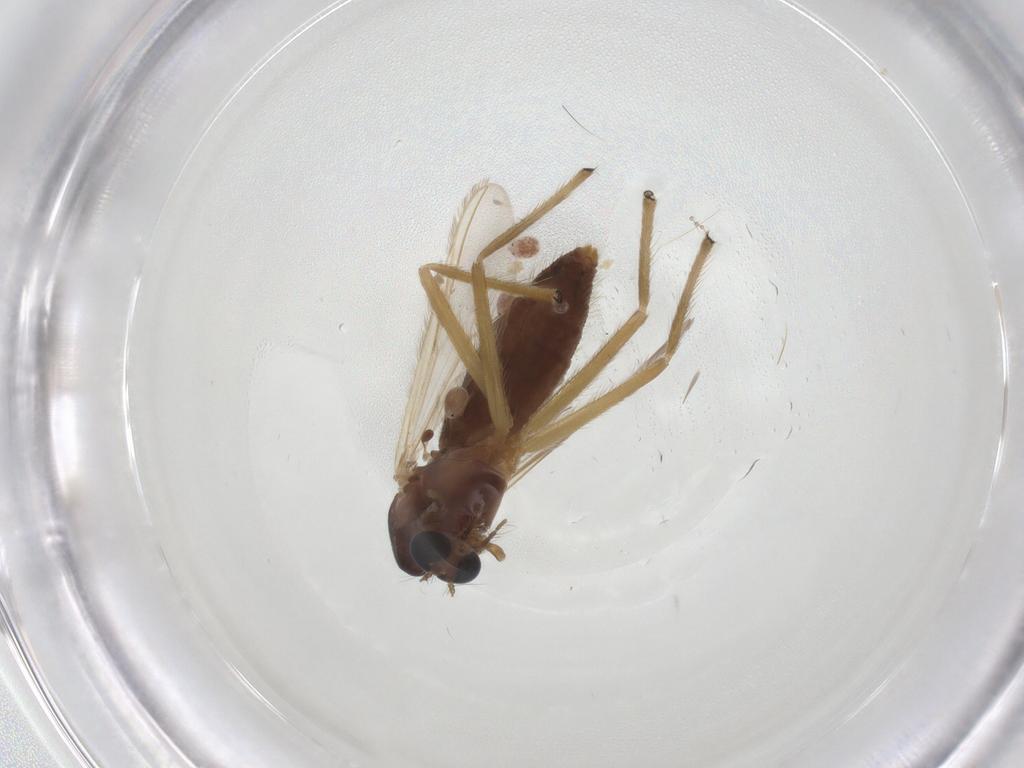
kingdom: Animalia
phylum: Arthropoda
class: Insecta
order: Diptera
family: Chironomidae
